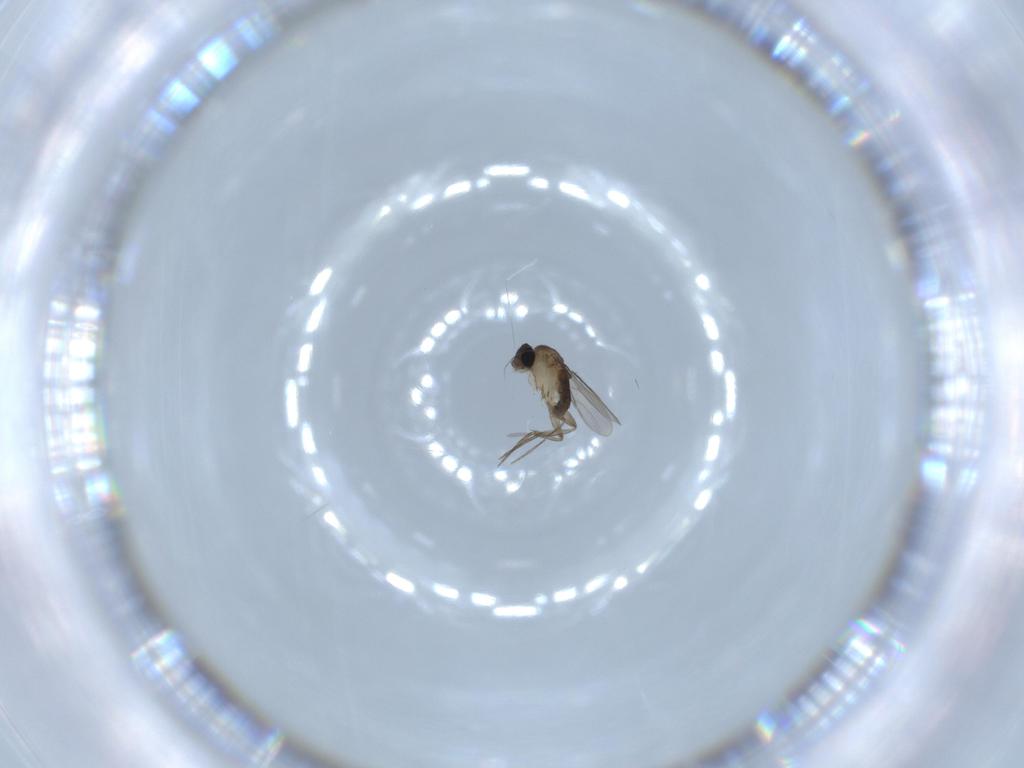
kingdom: Animalia
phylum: Arthropoda
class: Insecta
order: Diptera
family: Phoridae
